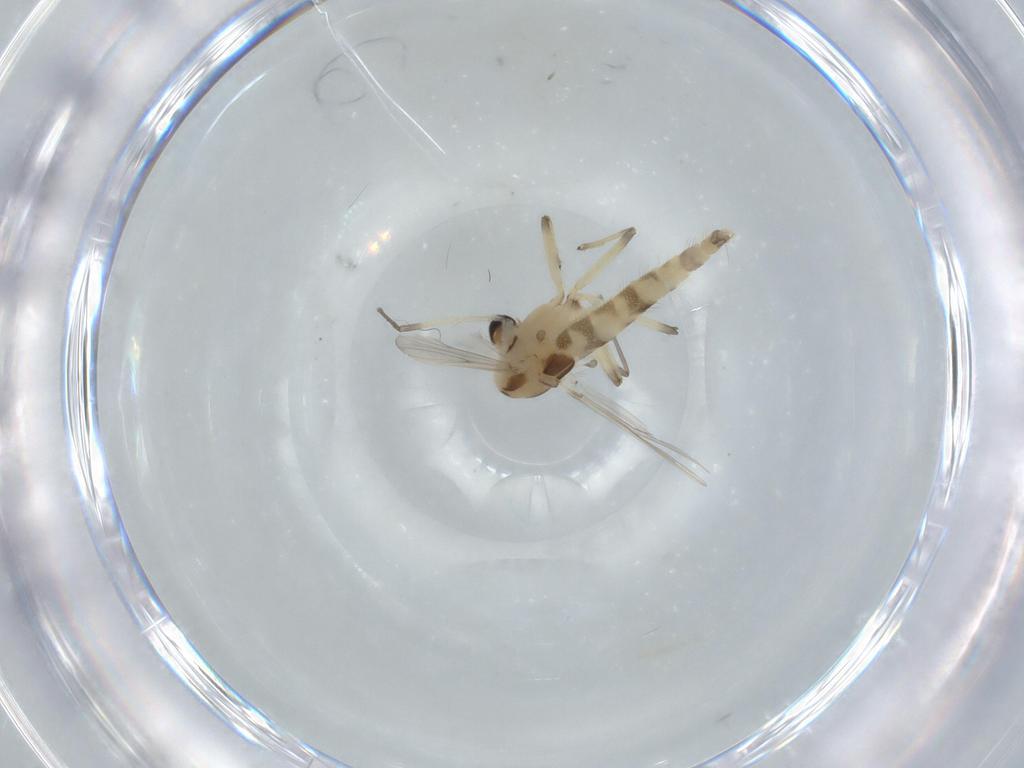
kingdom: Animalia
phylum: Arthropoda
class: Insecta
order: Diptera
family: Chironomidae
